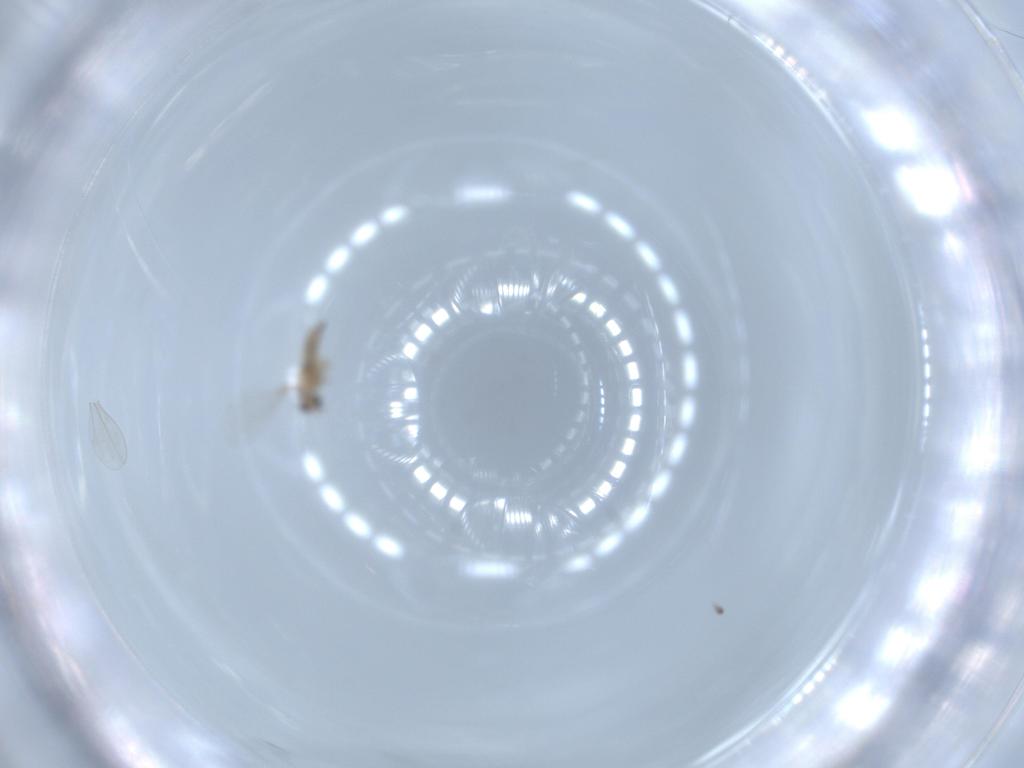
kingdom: Animalia
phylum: Arthropoda
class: Insecta
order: Diptera
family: Cecidomyiidae
